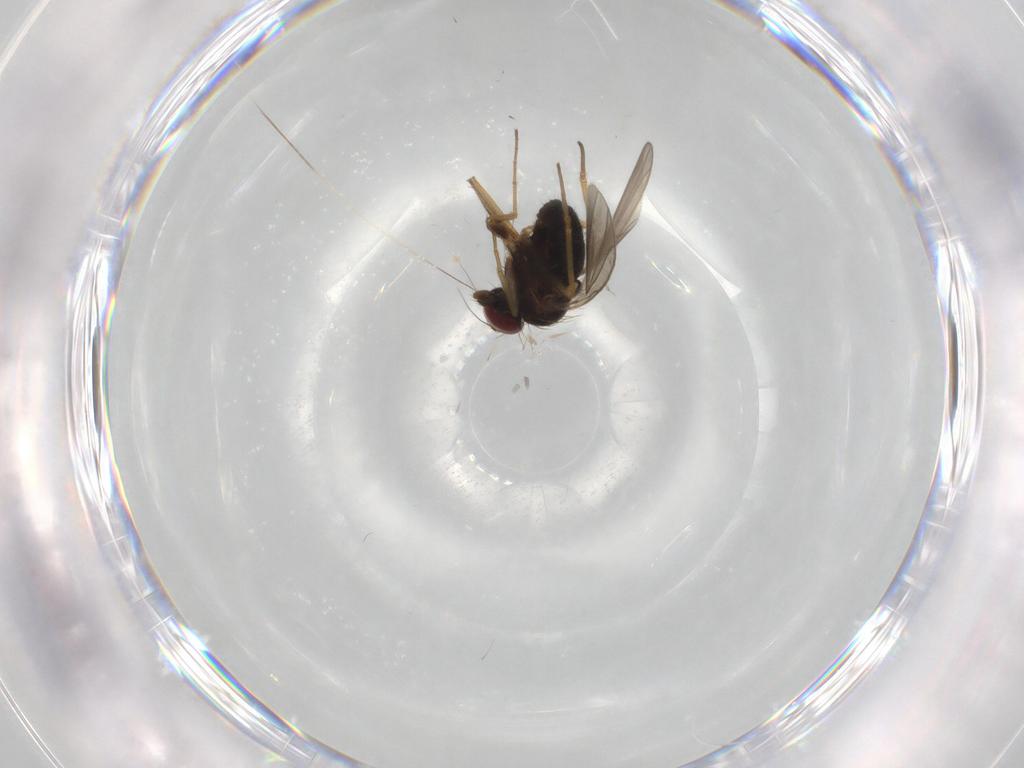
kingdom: Animalia
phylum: Arthropoda
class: Insecta
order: Diptera
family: Dolichopodidae
